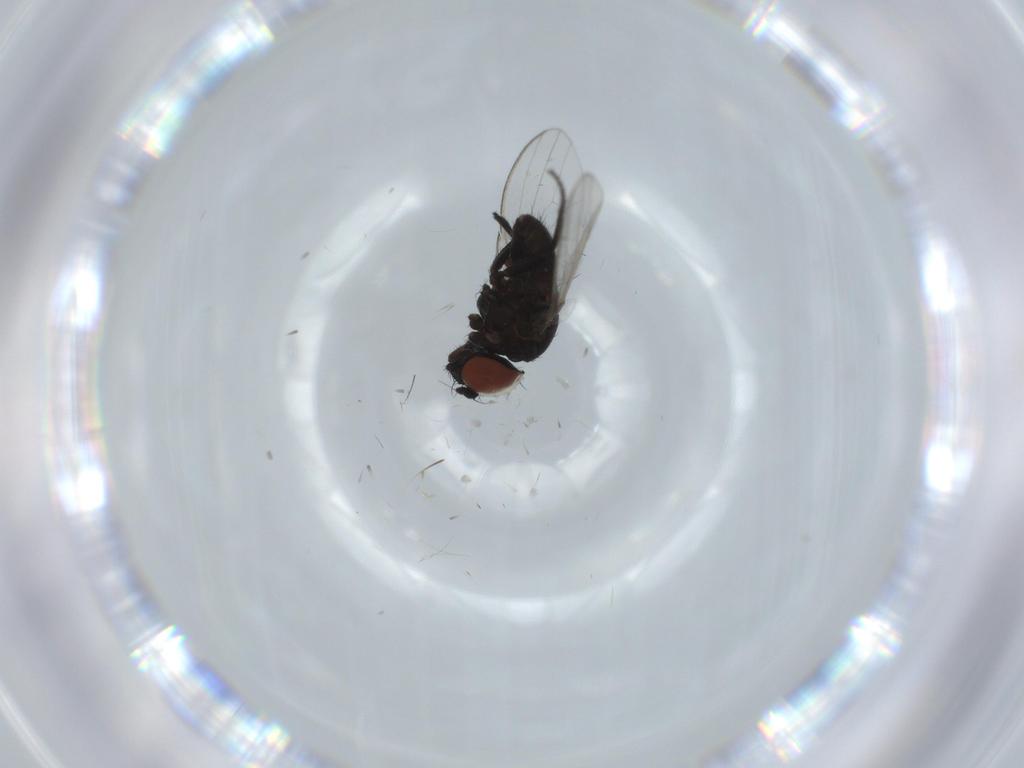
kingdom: Animalia
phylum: Arthropoda
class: Insecta
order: Diptera
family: Milichiidae
